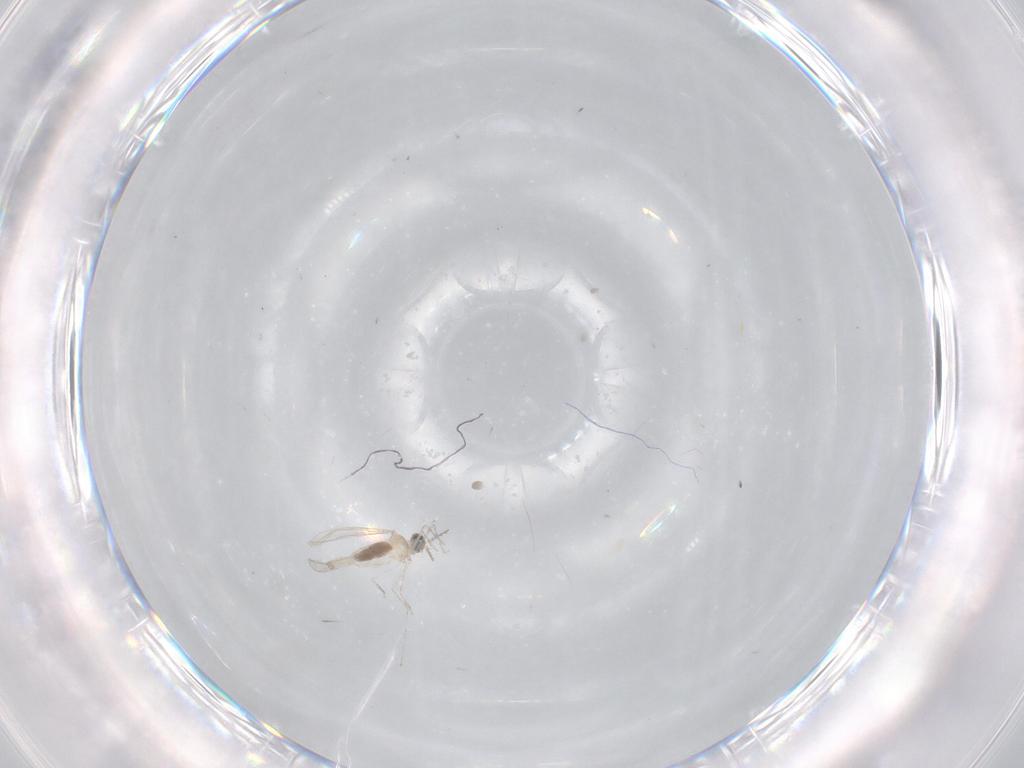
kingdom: Animalia
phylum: Arthropoda
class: Insecta
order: Diptera
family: Cecidomyiidae
